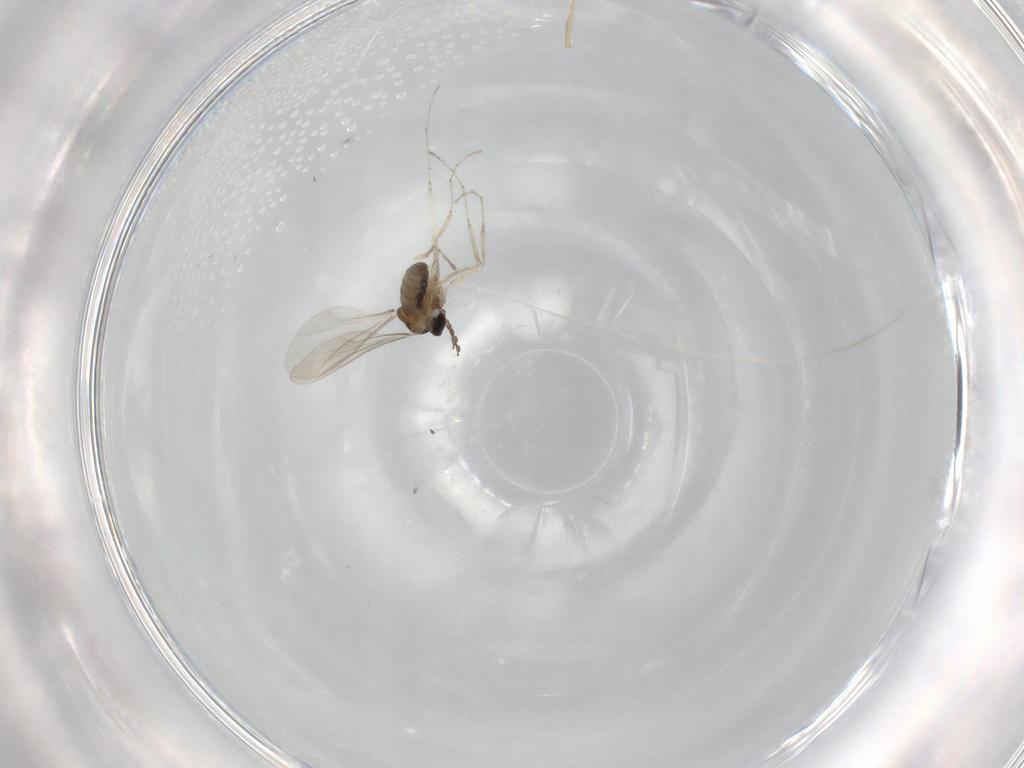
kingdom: Animalia
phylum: Arthropoda
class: Insecta
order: Diptera
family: Cecidomyiidae
